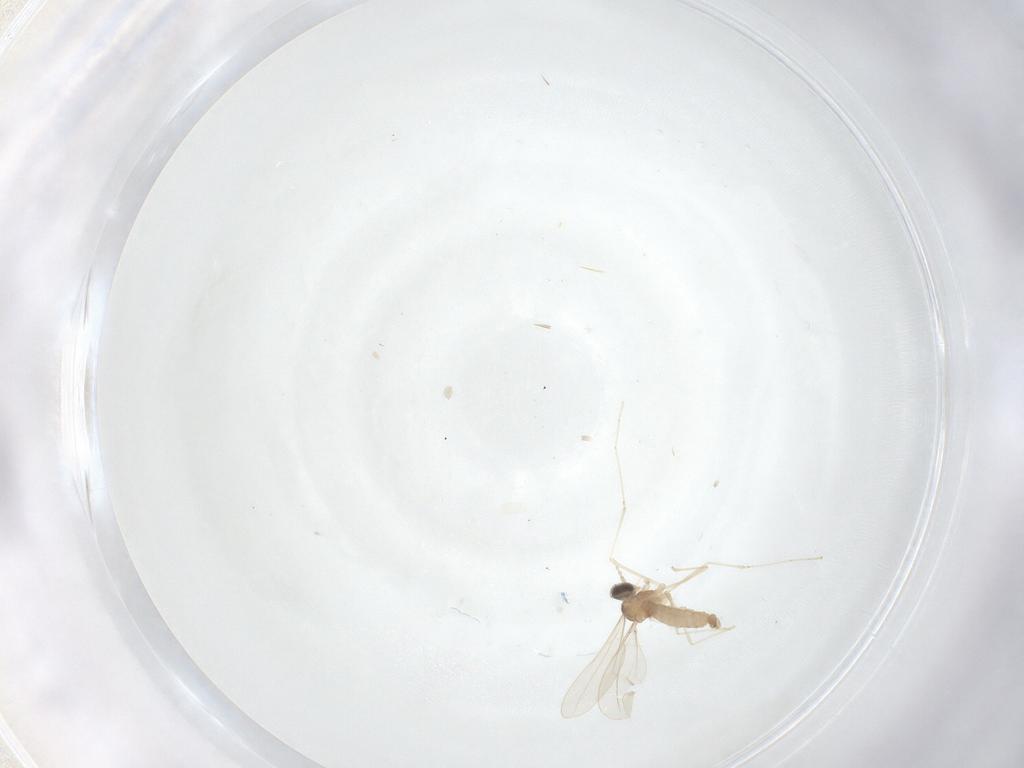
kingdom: Animalia
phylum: Arthropoda
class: Insecta
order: Diptera
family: Cecidomyiidae
